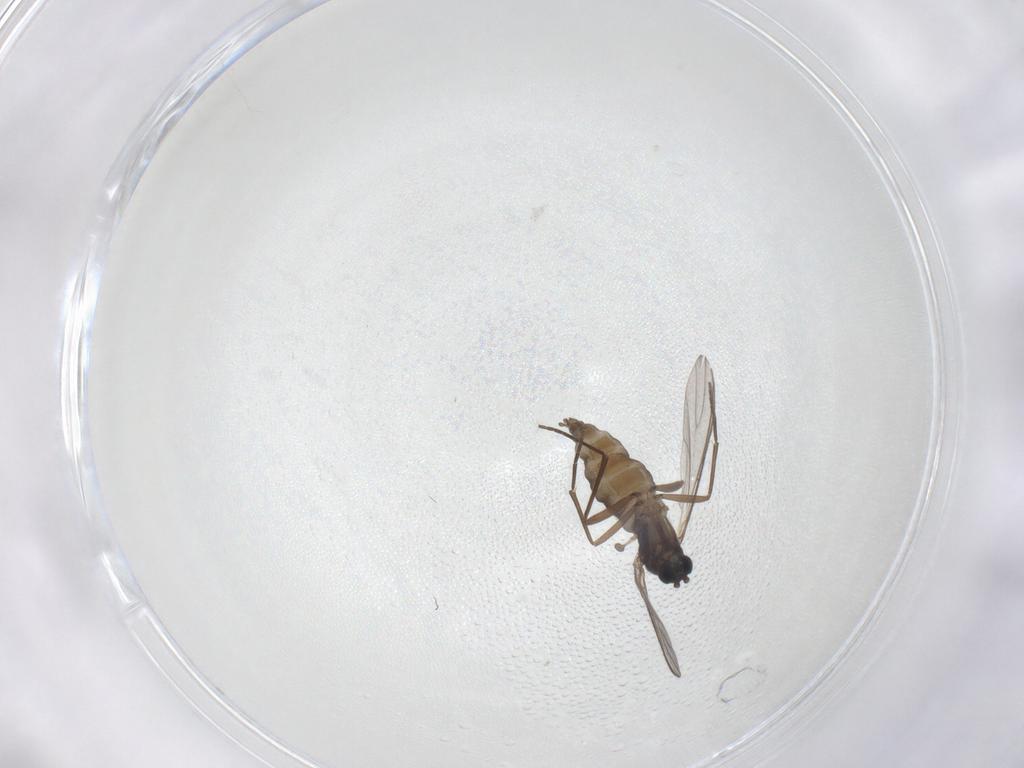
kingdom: Animalia
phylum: Arthropoda
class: Insecta
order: Diptera
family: Sciaridae
